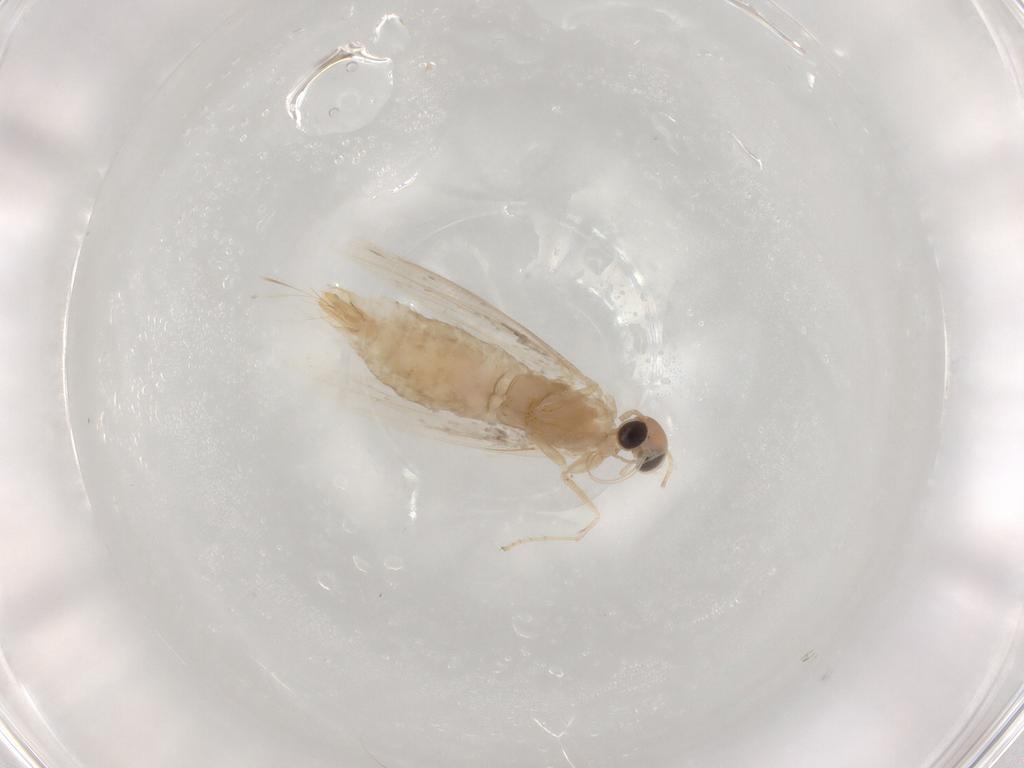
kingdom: Animalia
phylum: Arthropoda
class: Insecta
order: Lepidoptera
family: Glyphipterigidae
